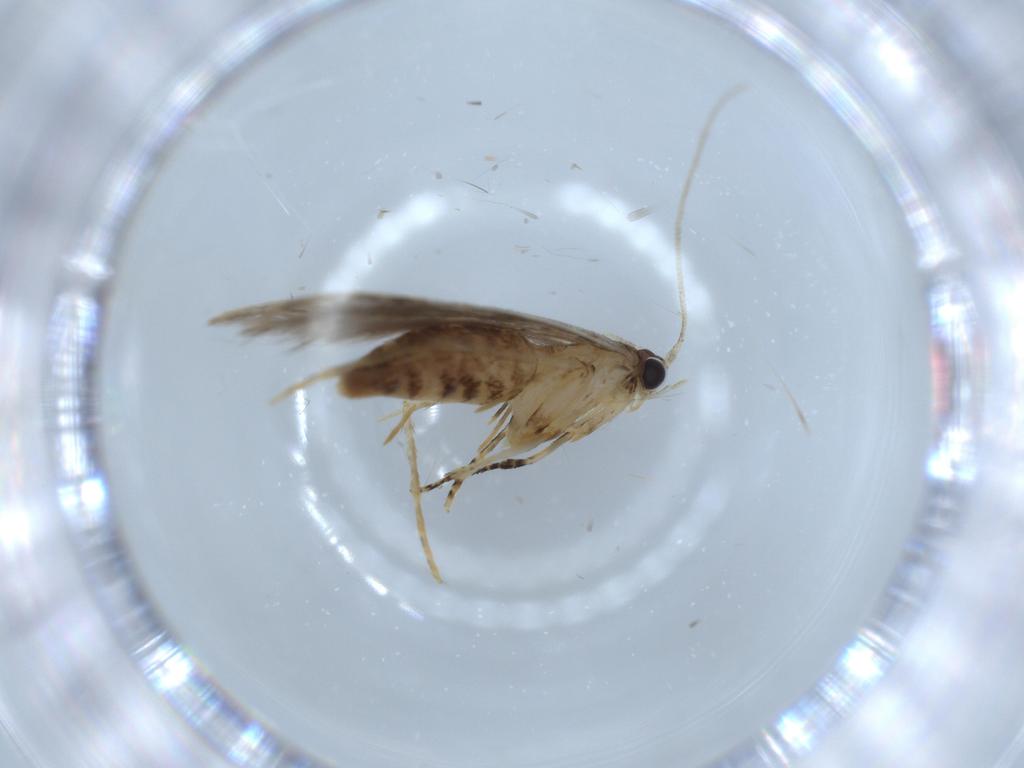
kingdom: Animalia
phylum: Arthropoda
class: Insecta
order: Lepidoptera
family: Tineidae
